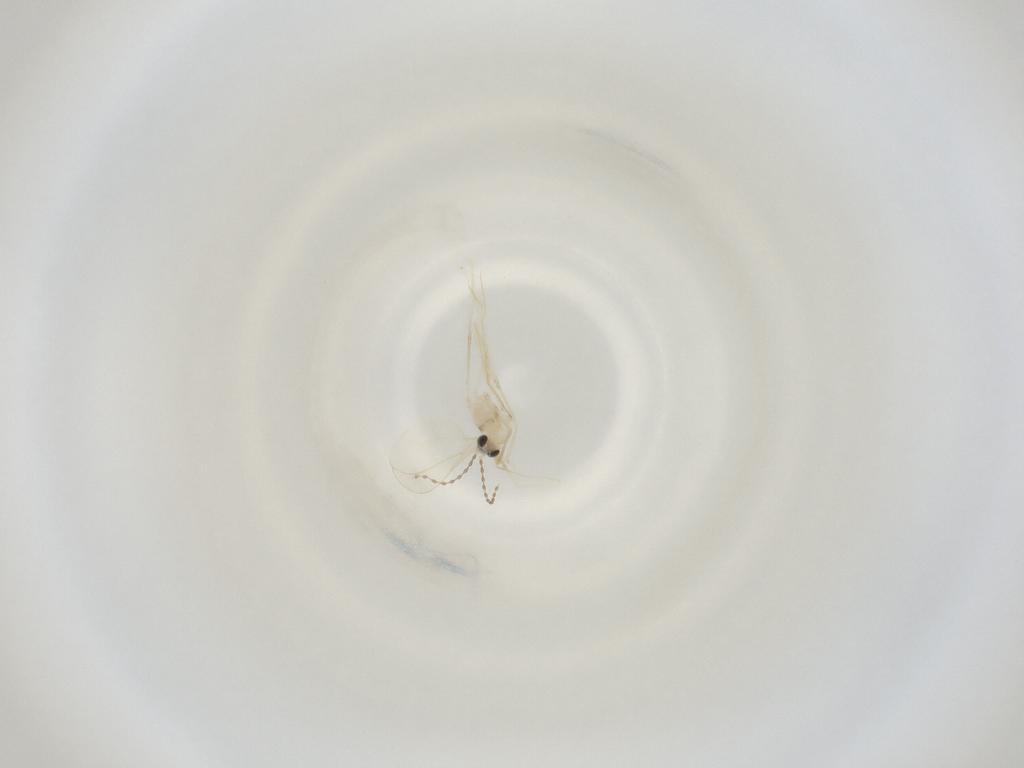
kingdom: Animalia
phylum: Arthropoda
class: Insecta
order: Diptera
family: Cecidomyiidae
